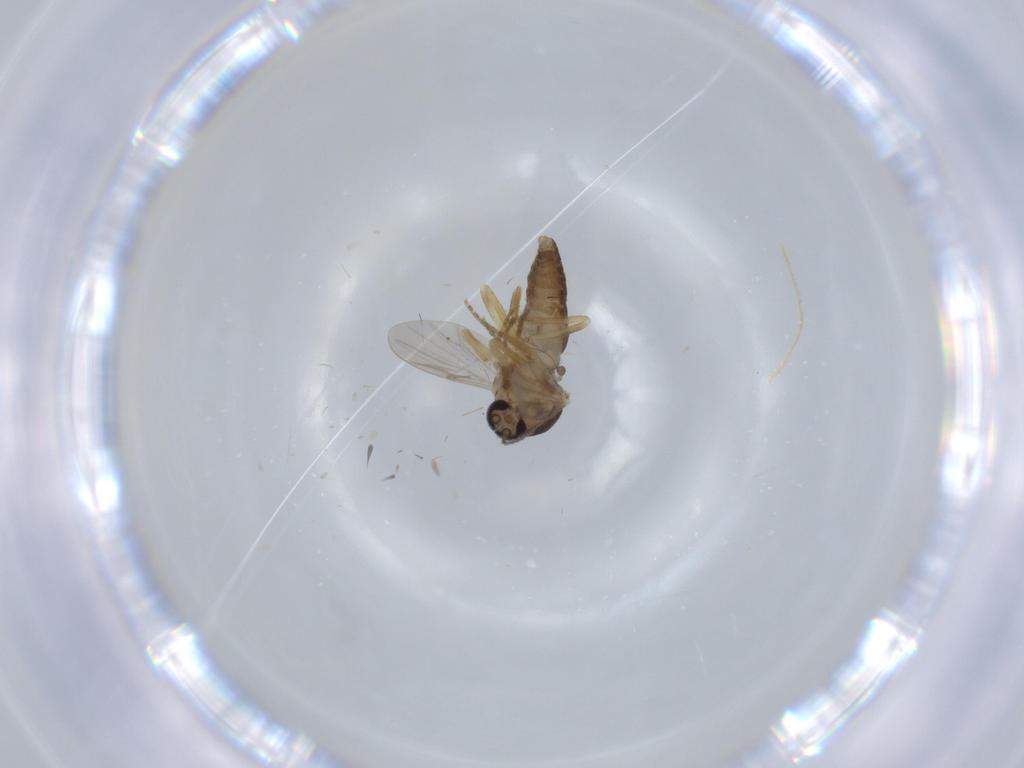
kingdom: Animalia
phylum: Arthropoda
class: Insecta
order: Diptera
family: Ceratopogonidae
